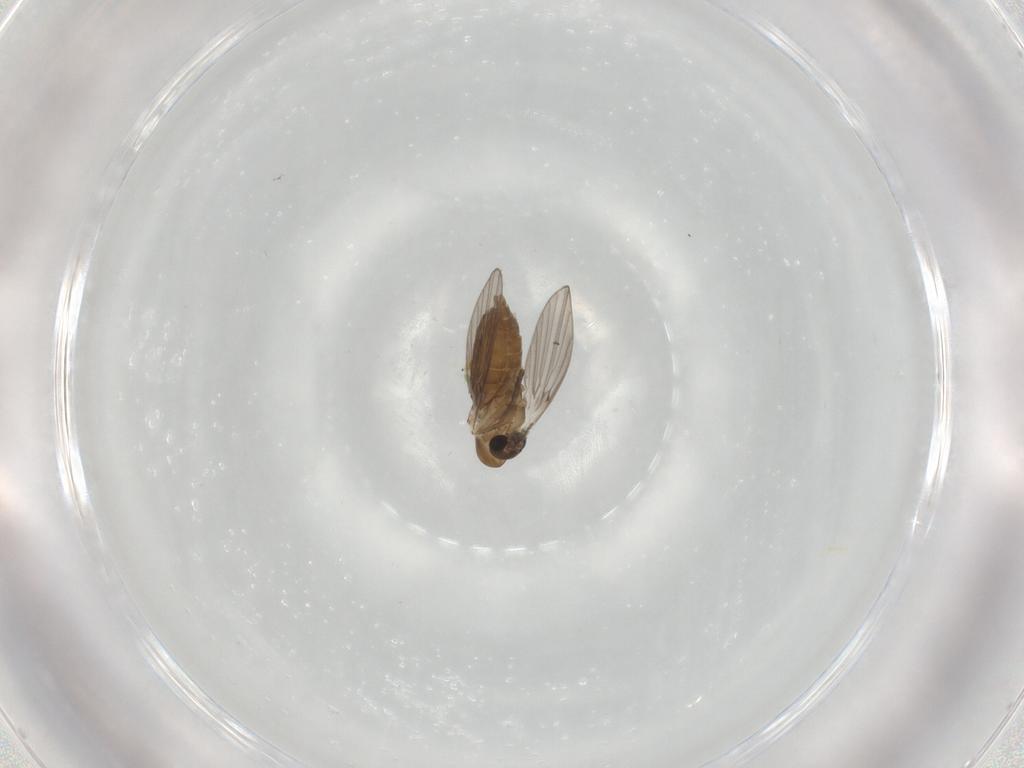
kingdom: Animalia
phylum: Arthropoda
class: Insecta
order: Diptera
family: Psychodidae
